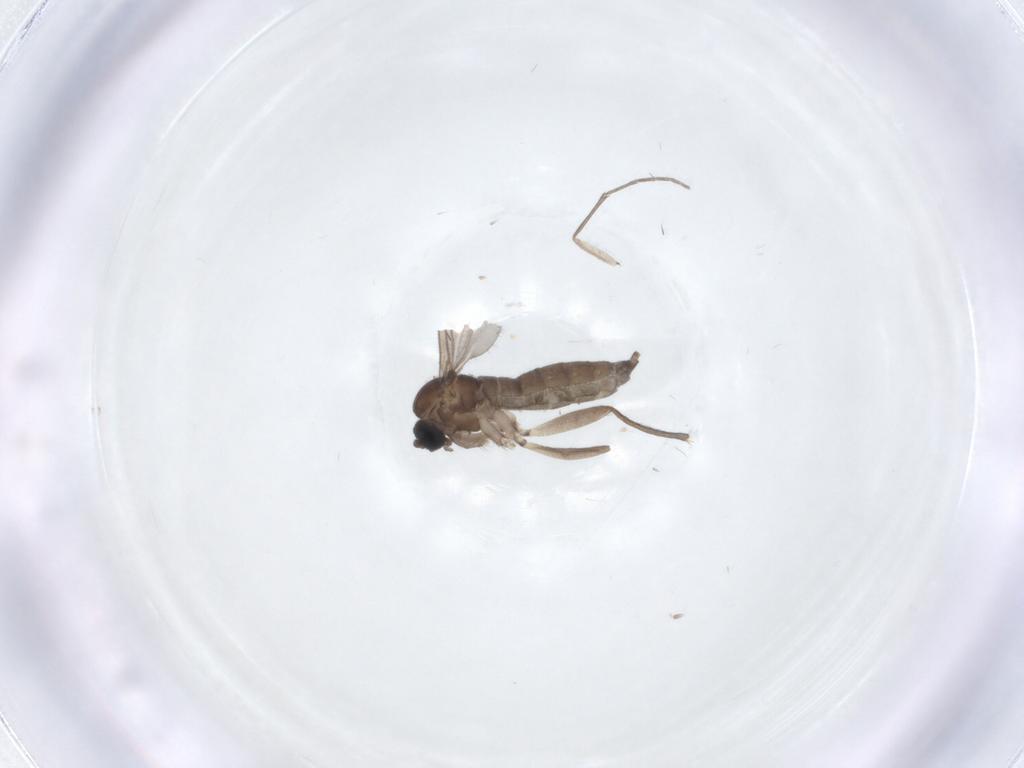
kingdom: Animalia
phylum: Arthropoda
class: Insecta
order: Diptera
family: Sciaridae
